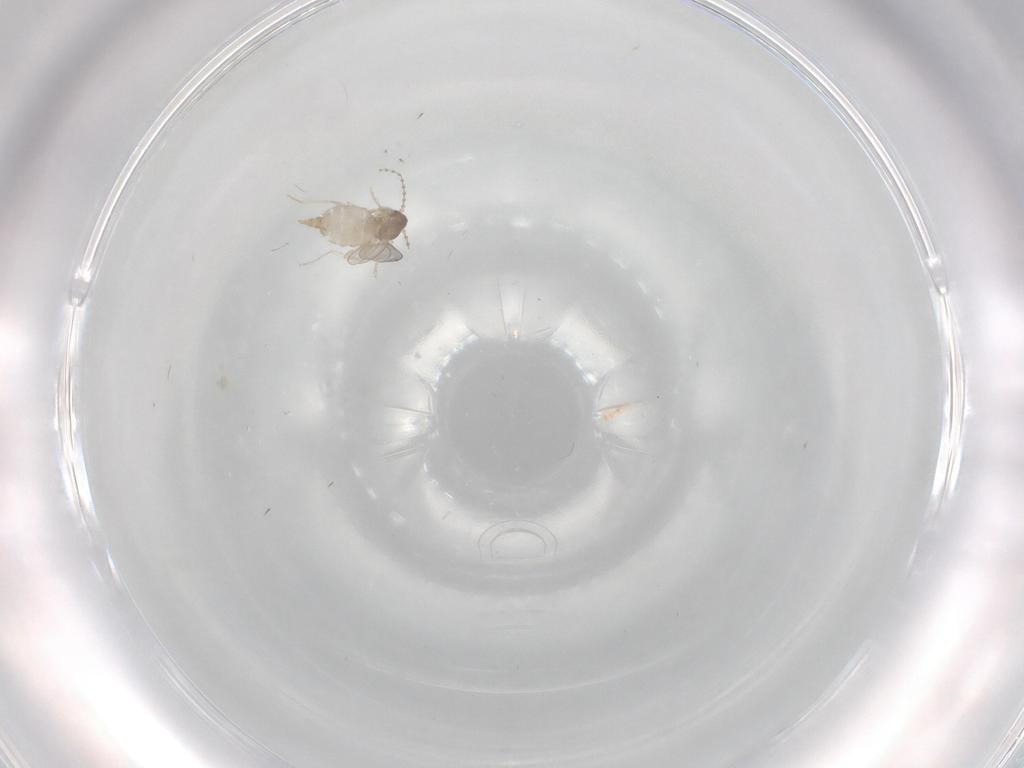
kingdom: Animalia
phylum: Arthropoda
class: Insecta
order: Diptera
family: Cecidomyiidae
